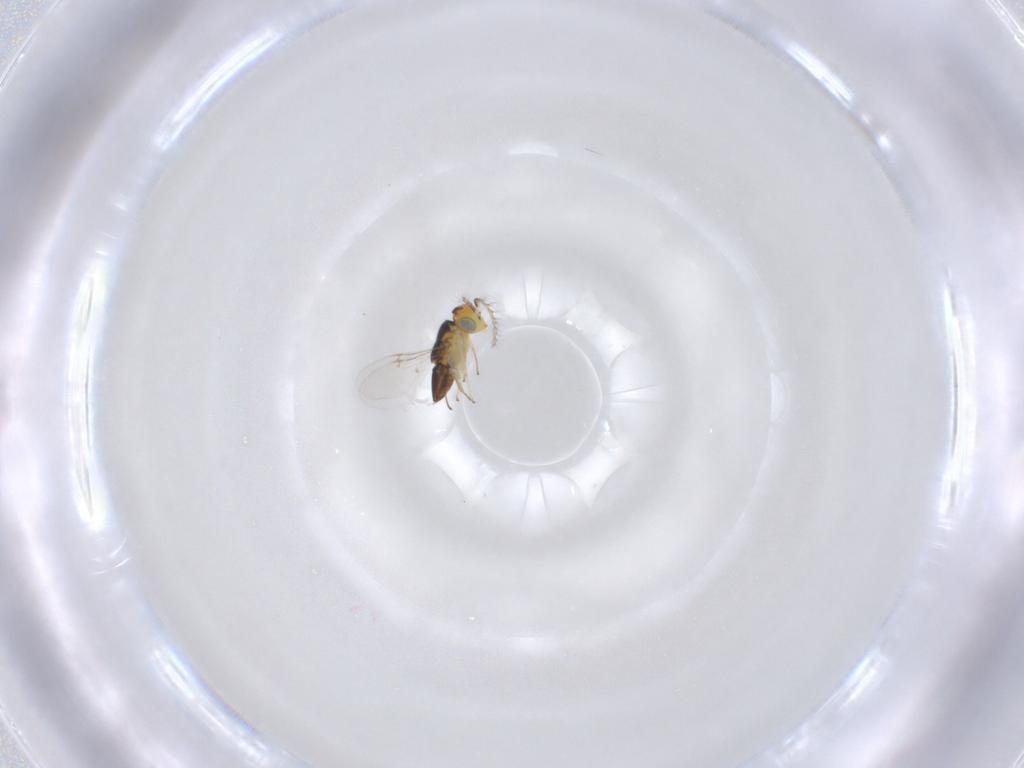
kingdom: Animalia
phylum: Arthropoda
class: Insecta
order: Hymenoptera
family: Encyrtidae
